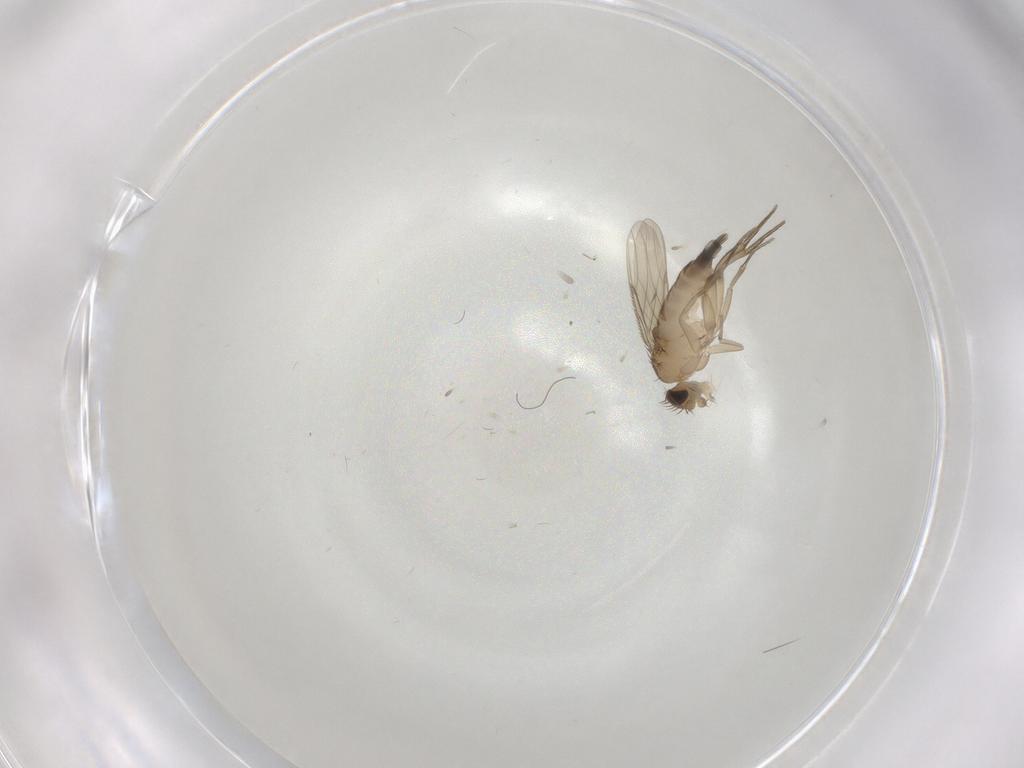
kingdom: Animalia
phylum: Arthropoda
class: Insecta
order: Diptera
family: Phoridae
